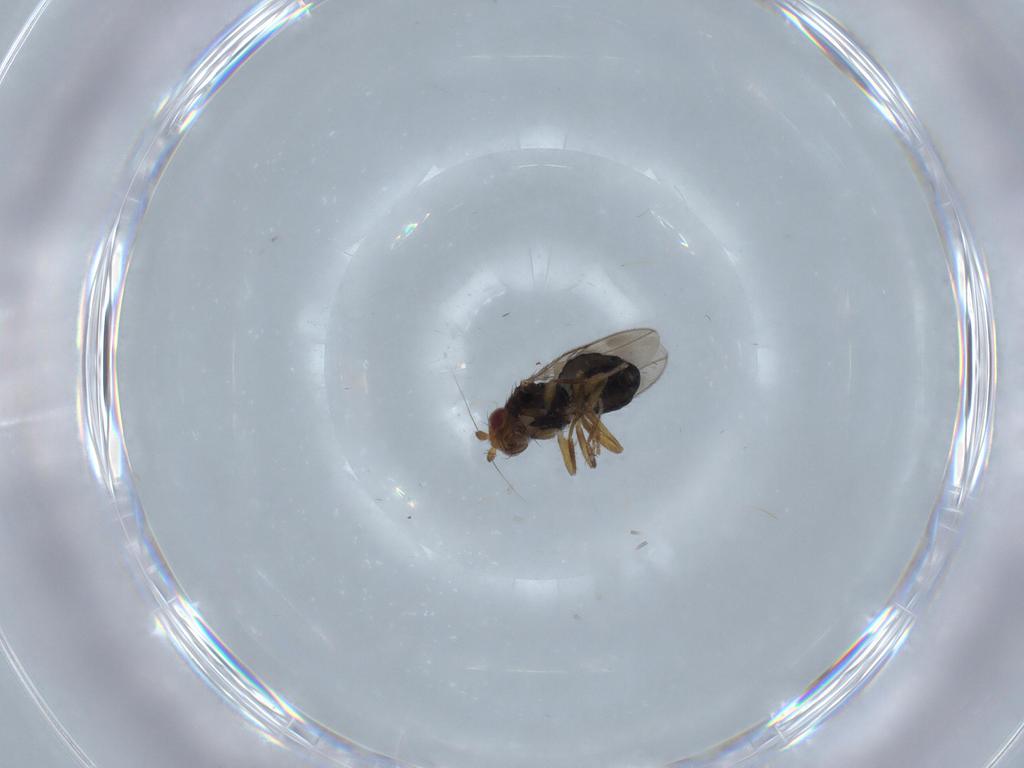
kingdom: Animalia
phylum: Arthropoda
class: Insecta
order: Diptera
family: Sphaeroceridae
